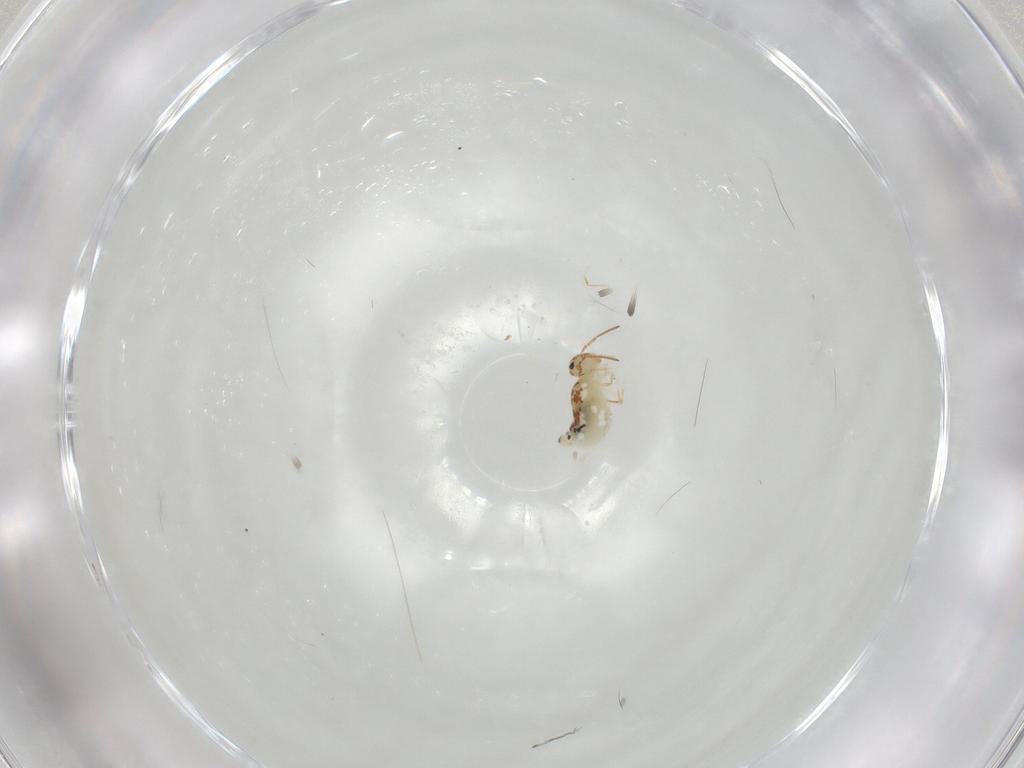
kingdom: Animalia
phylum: Arthropoda
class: Collembola
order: Symphypleona
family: Bourletiellidae
